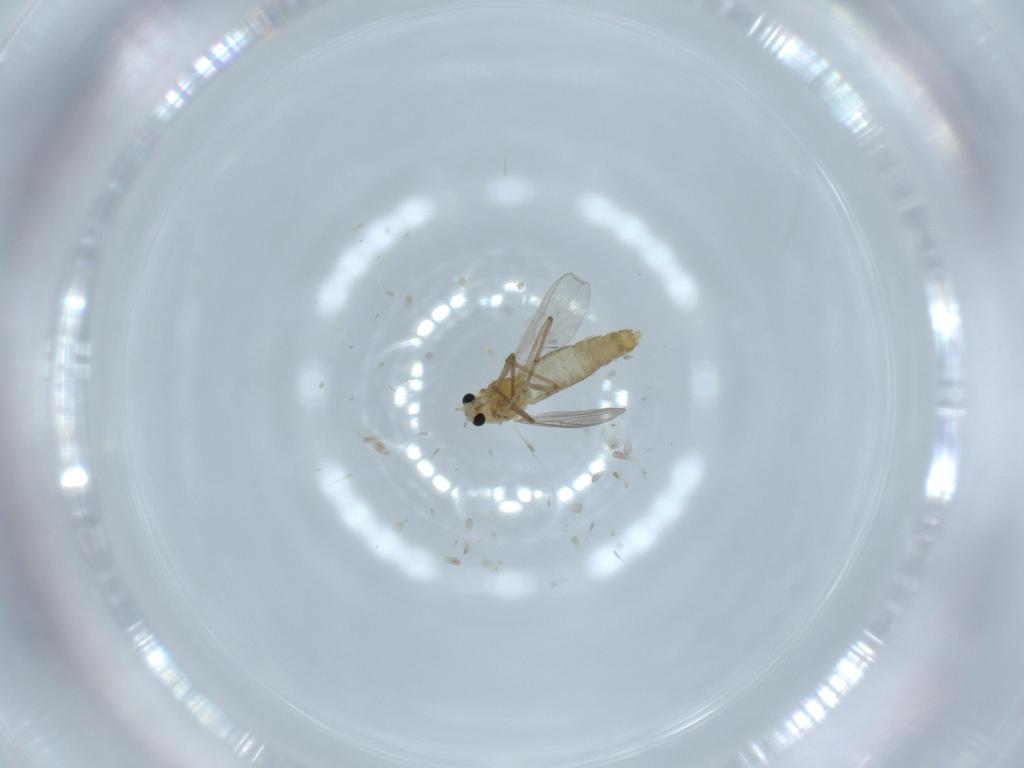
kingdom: Animalia
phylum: Arthropoda
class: Insecta
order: Diptera
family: Chironomidae
